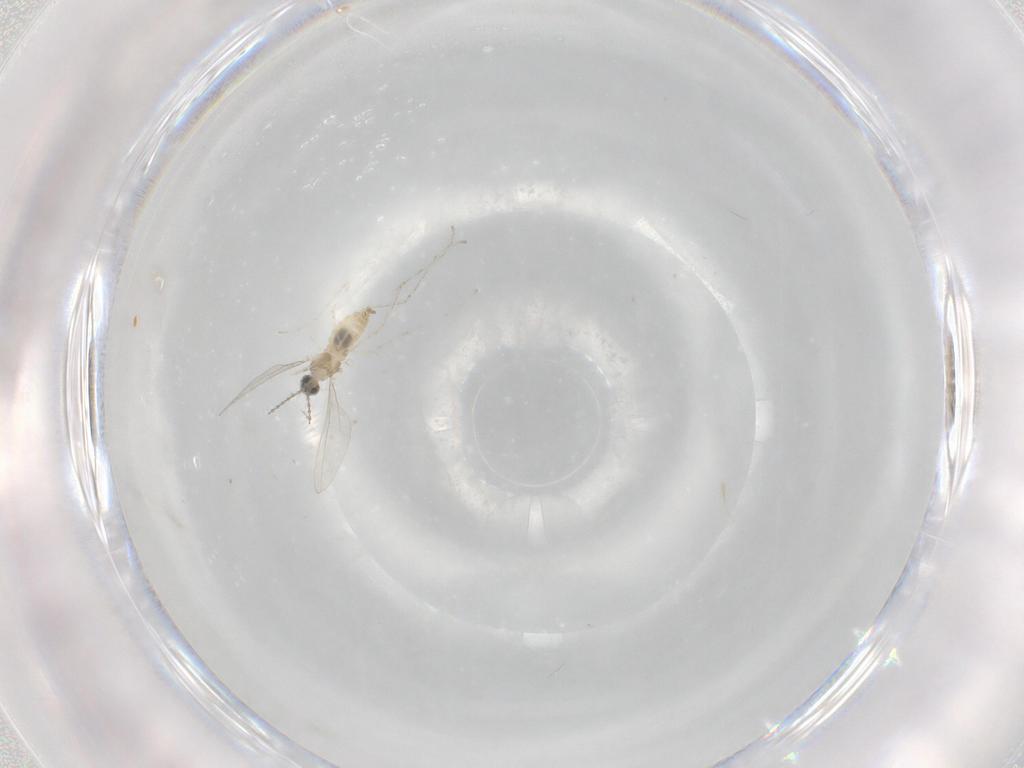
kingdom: Animalia
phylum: Arthropoda
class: Insecta
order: Diptera
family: Cecidomyiidae
